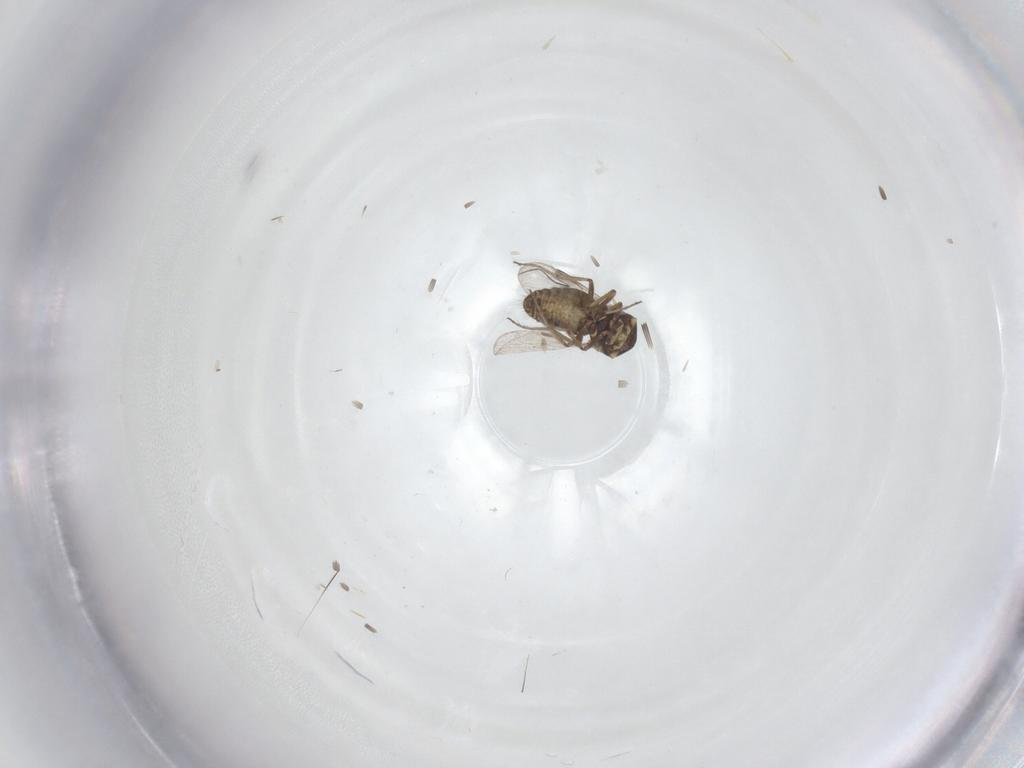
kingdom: Animalia
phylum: Arthropoda
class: Insecta
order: Diptera
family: Ceratopogonidae
